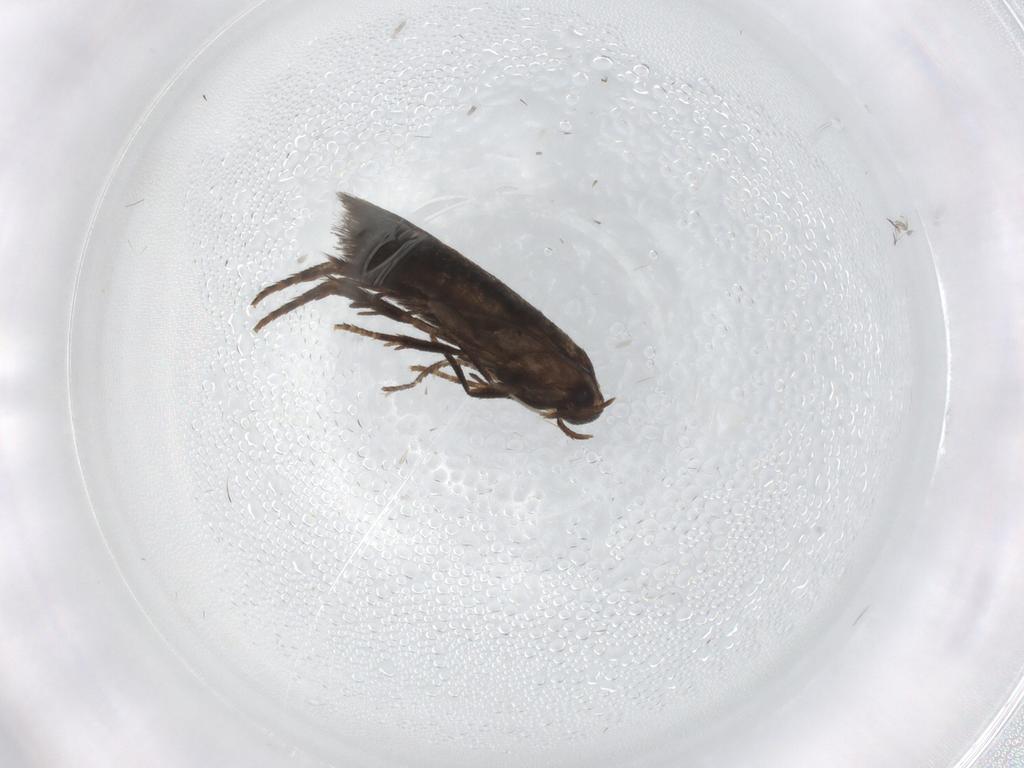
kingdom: Animalia
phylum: Arthropoda
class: Insecta
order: Lepidoptera
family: Gelechiidae
